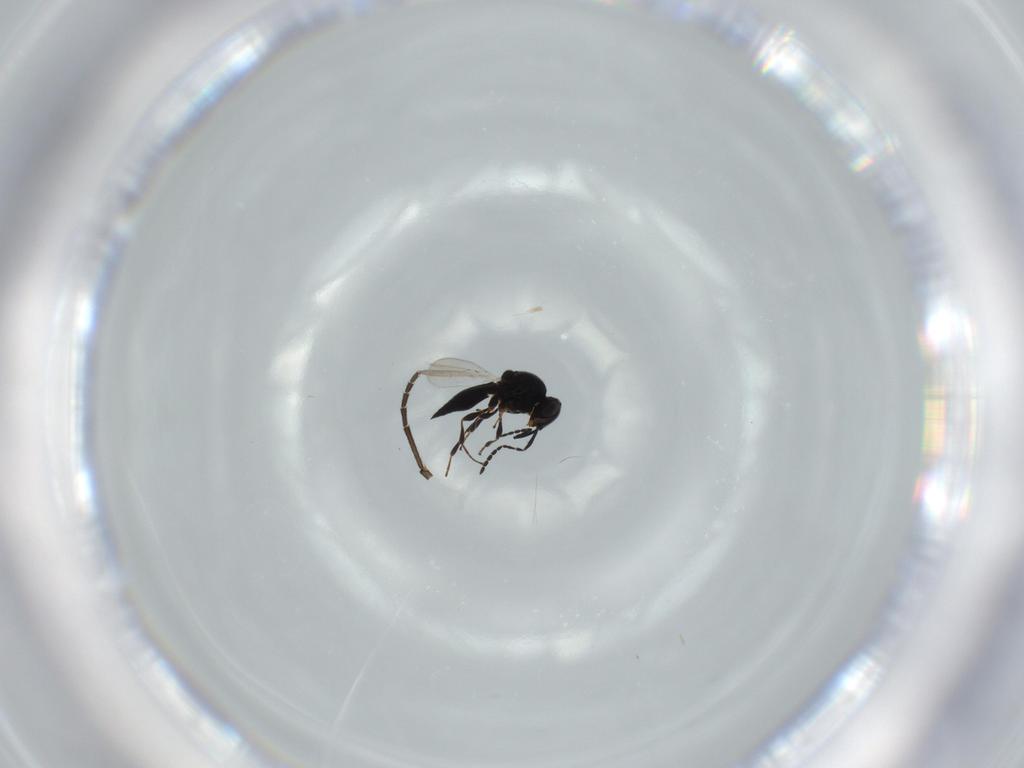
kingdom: Animalia
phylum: Arthropoda
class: Insecta
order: Diptera
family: Mythicomyiidae
